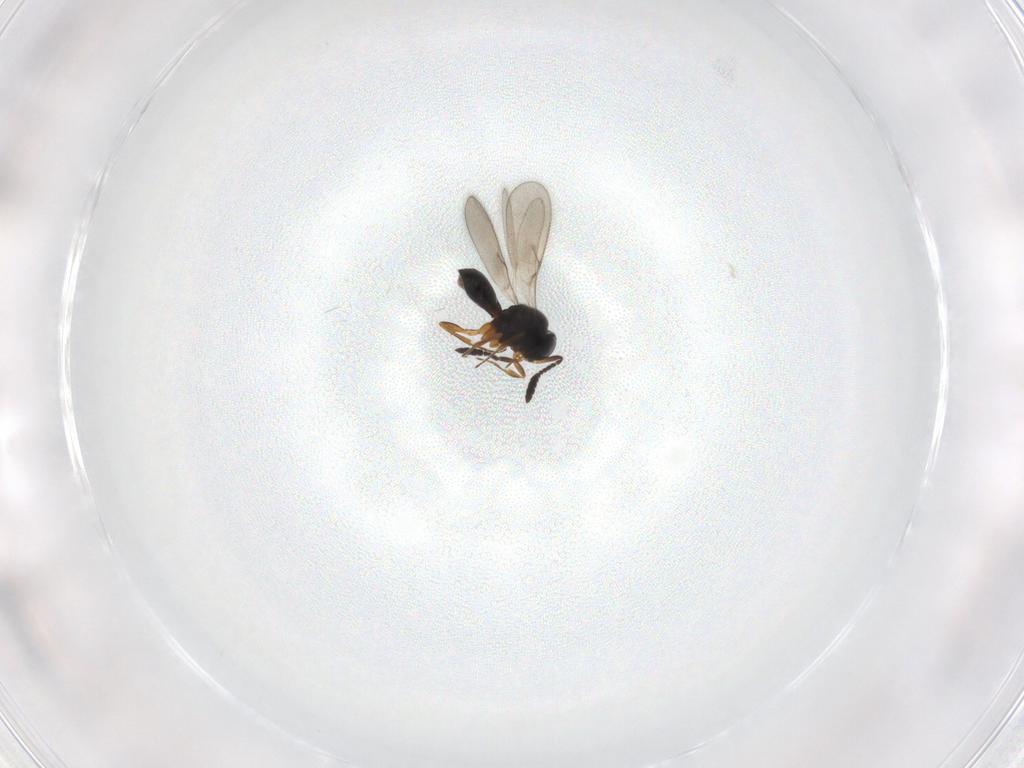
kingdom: Animalia
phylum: Arthropoda
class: Insecta
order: Hymenoptera
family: Scelionidae
